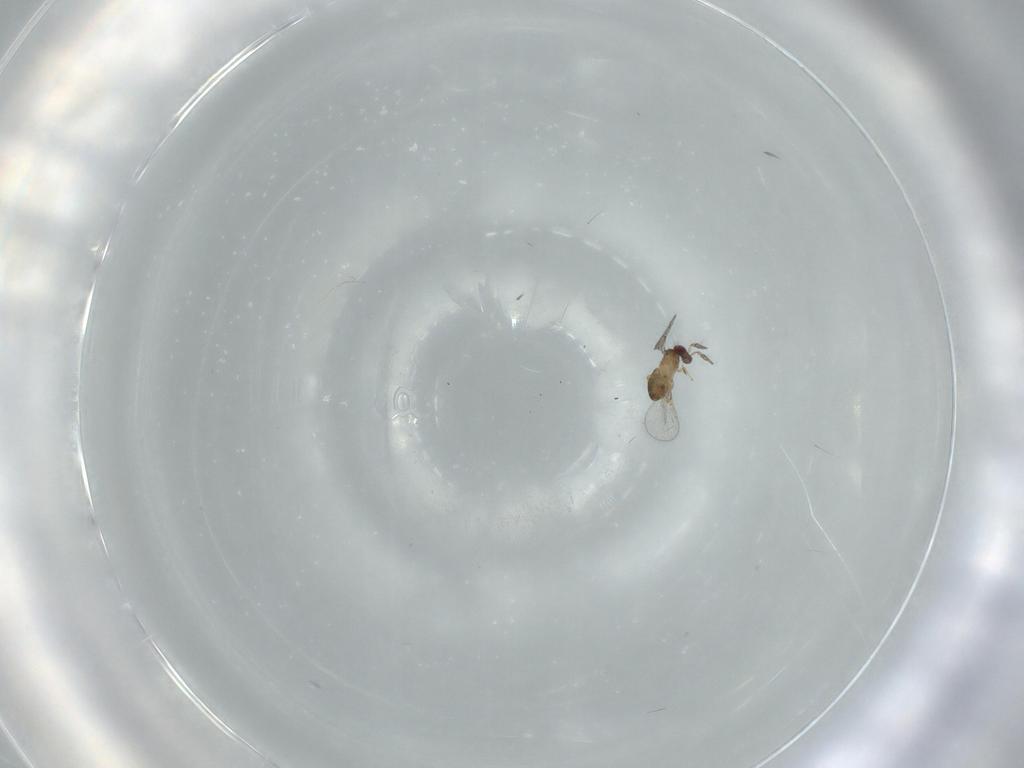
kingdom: Animalia
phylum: Arthropoda
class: Insecta
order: Hymenoptera
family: Trichogrammatidae
